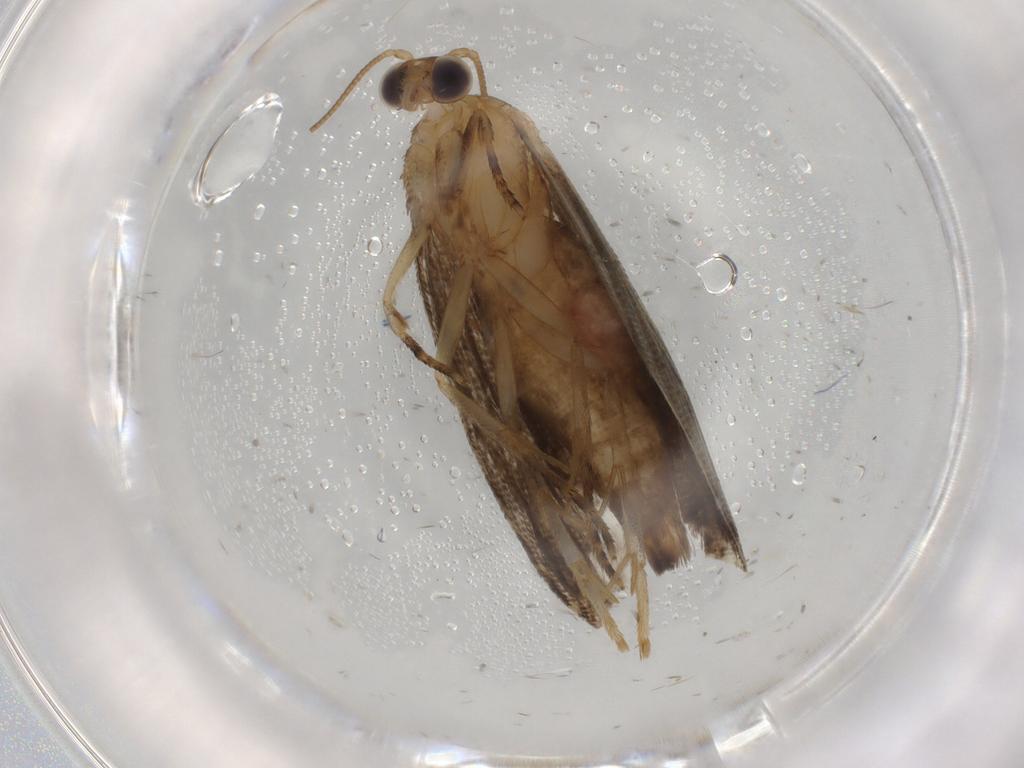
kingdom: Animalia
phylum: Arthropoda
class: Insecta
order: Lepidoptera
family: Tortricidae
